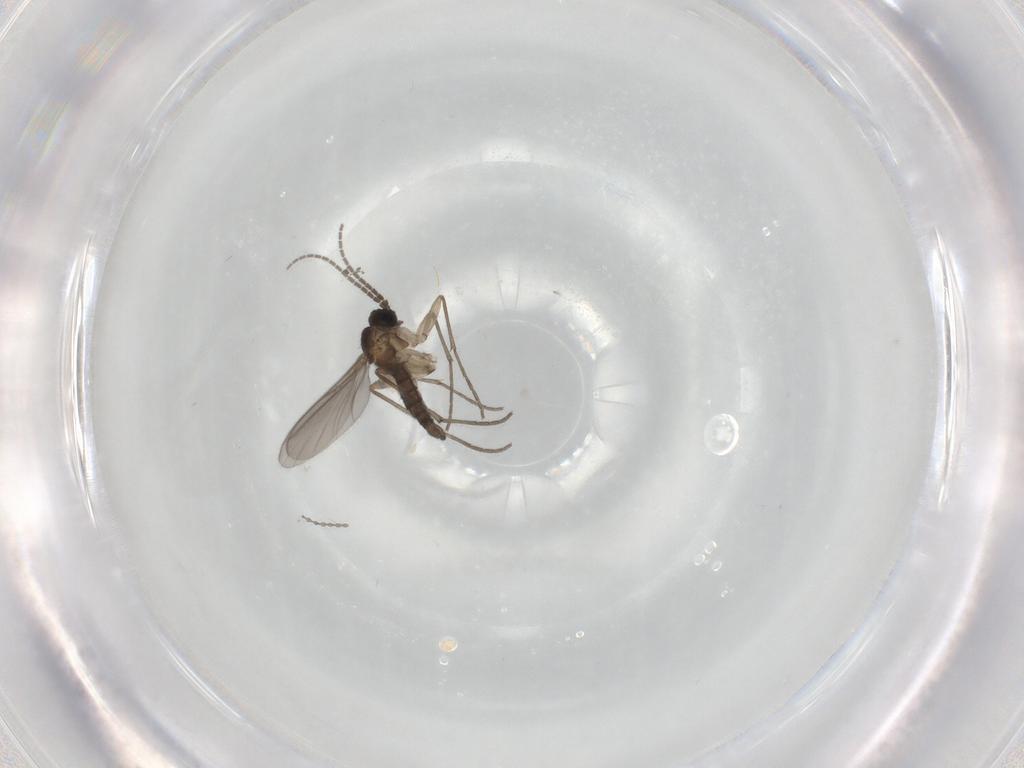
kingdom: Animalia
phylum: Arthropoda
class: Insecta
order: Diptera
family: Sciaridae
